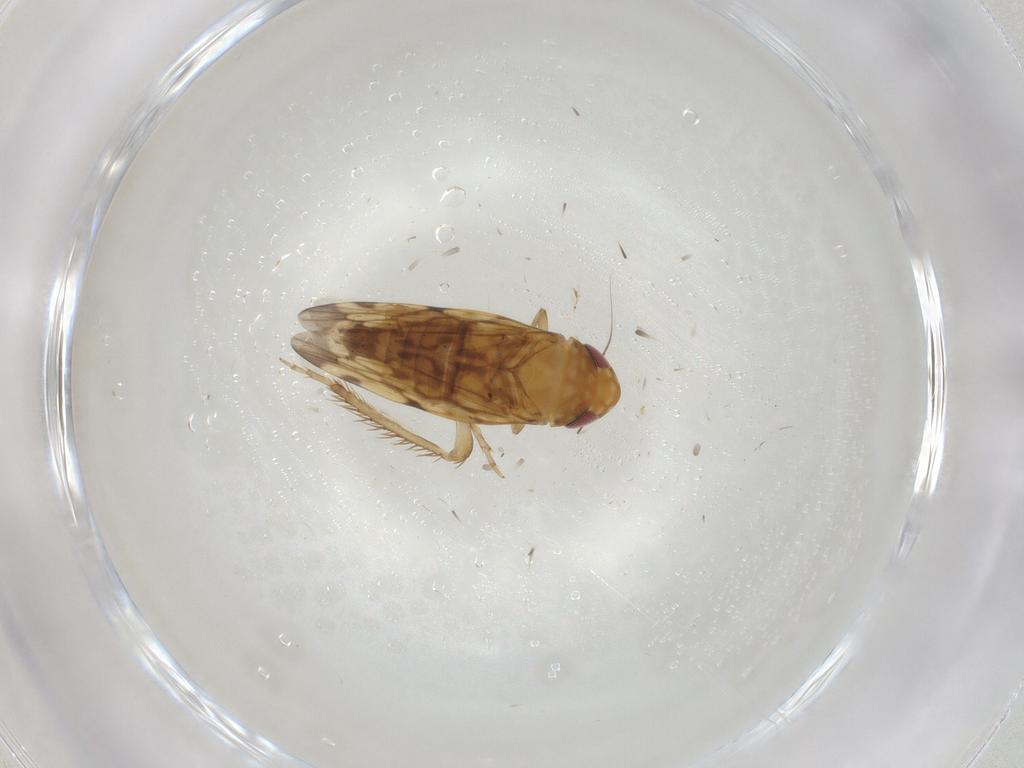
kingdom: Animalia
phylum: Arthropoda
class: Insecta
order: Hemiptera
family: Cicadellidae
